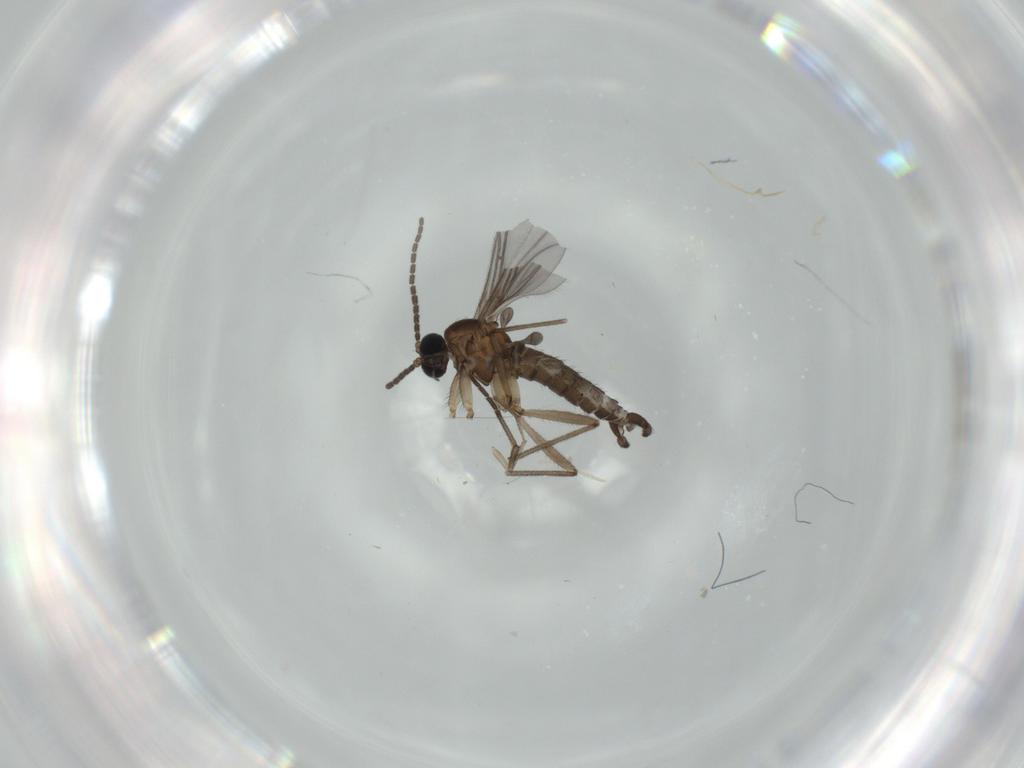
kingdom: Animalia
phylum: Arthropoda
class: Insecta
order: Diptera
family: Sciaridae
